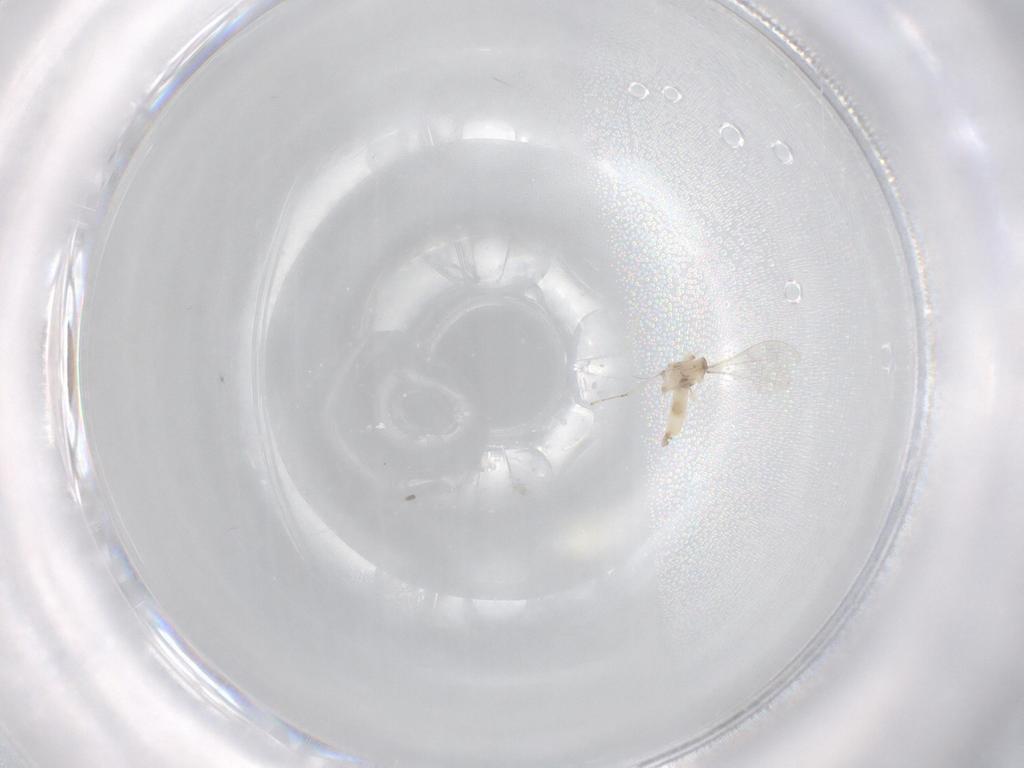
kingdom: Animalia
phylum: Arthropoda
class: Insecta
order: Diptera
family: Cecidomyiidae
